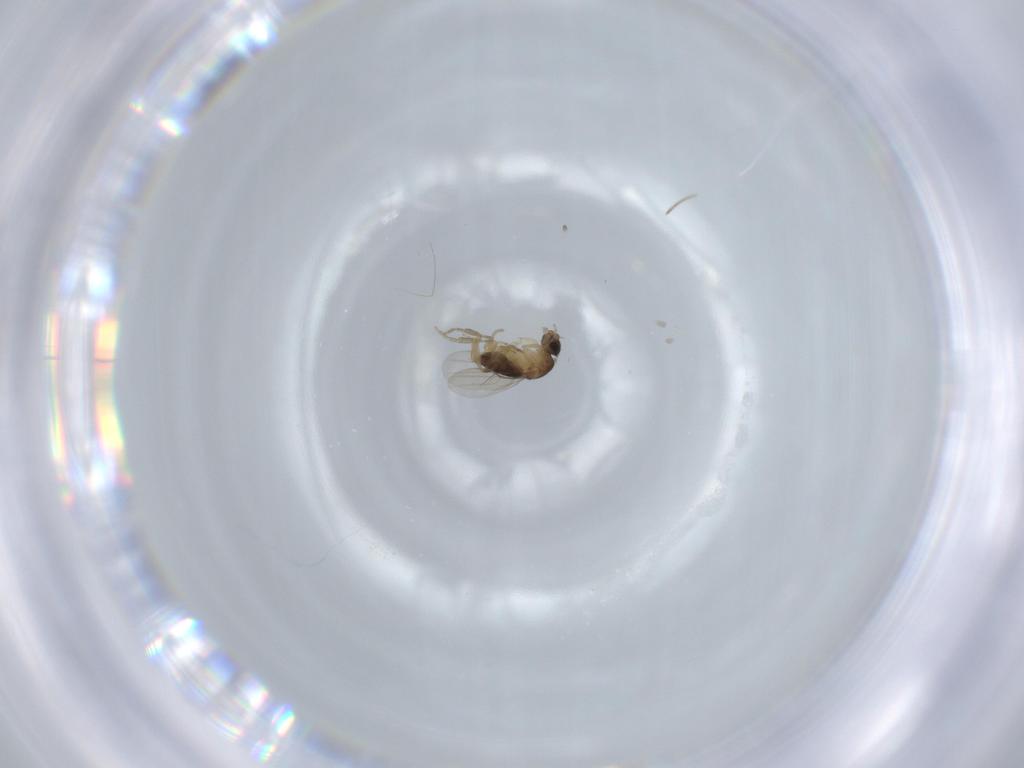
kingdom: Animalia
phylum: Arthropoda
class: Insecta
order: Diptera
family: Phoridae
